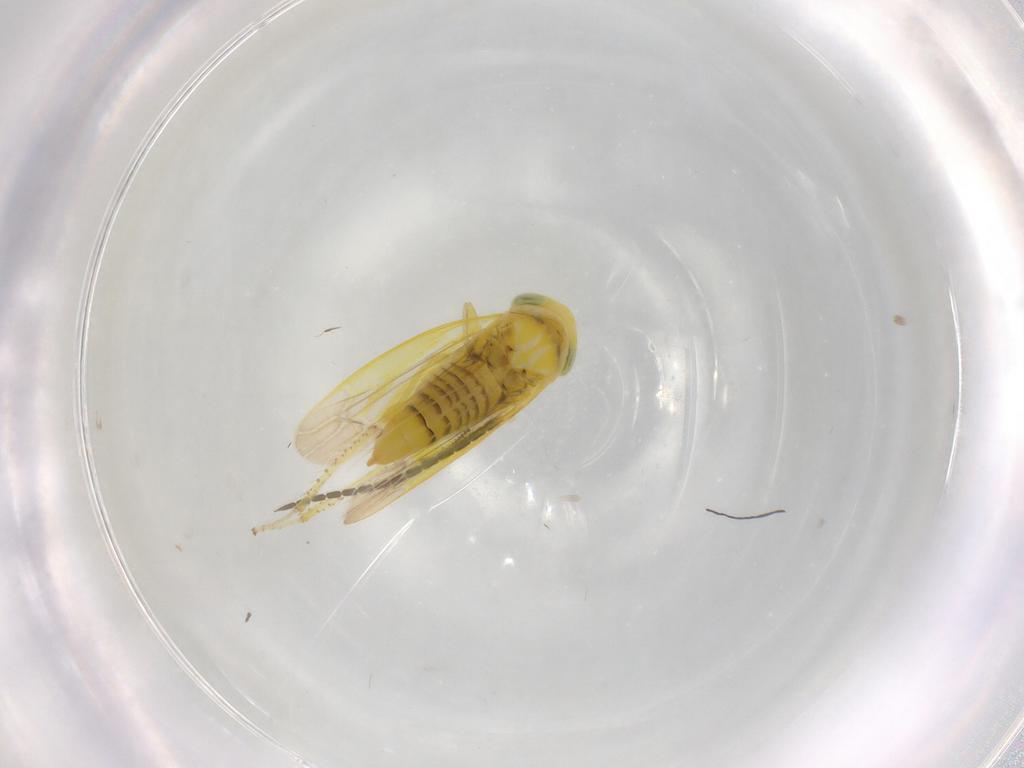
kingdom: Animalia
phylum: Arthropoda
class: Insecta
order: Hemiptera
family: Cicadellidae
